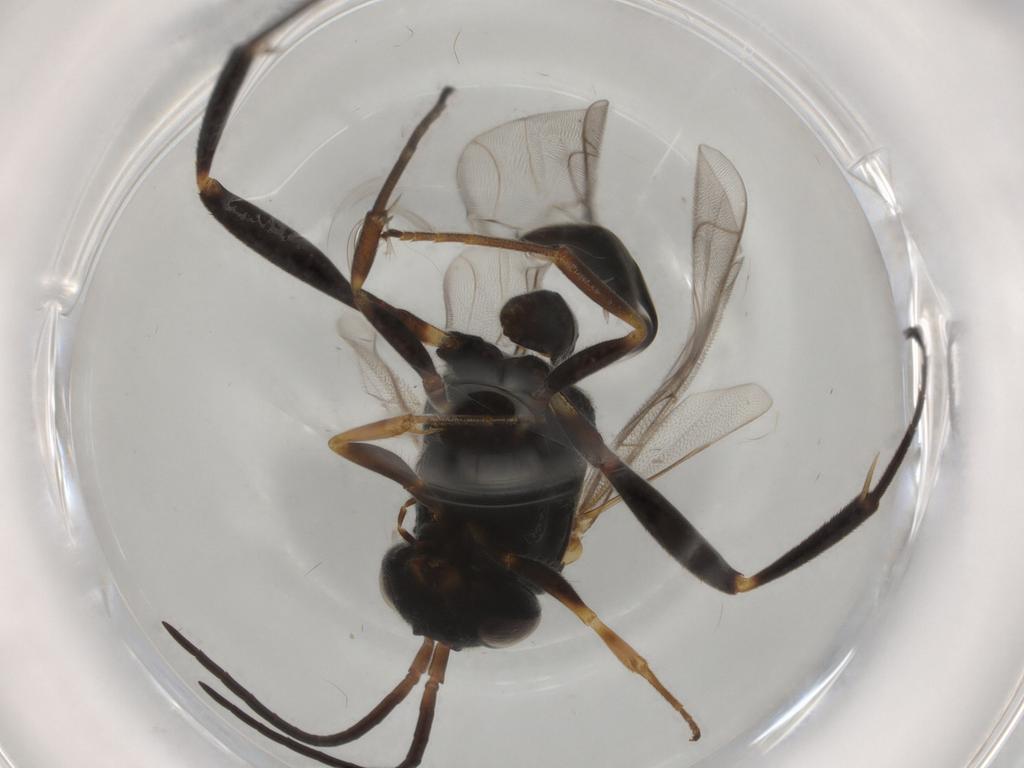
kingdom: Animalia
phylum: Arthropoda
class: Insecta
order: Hymenoptera
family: Evaniidae
